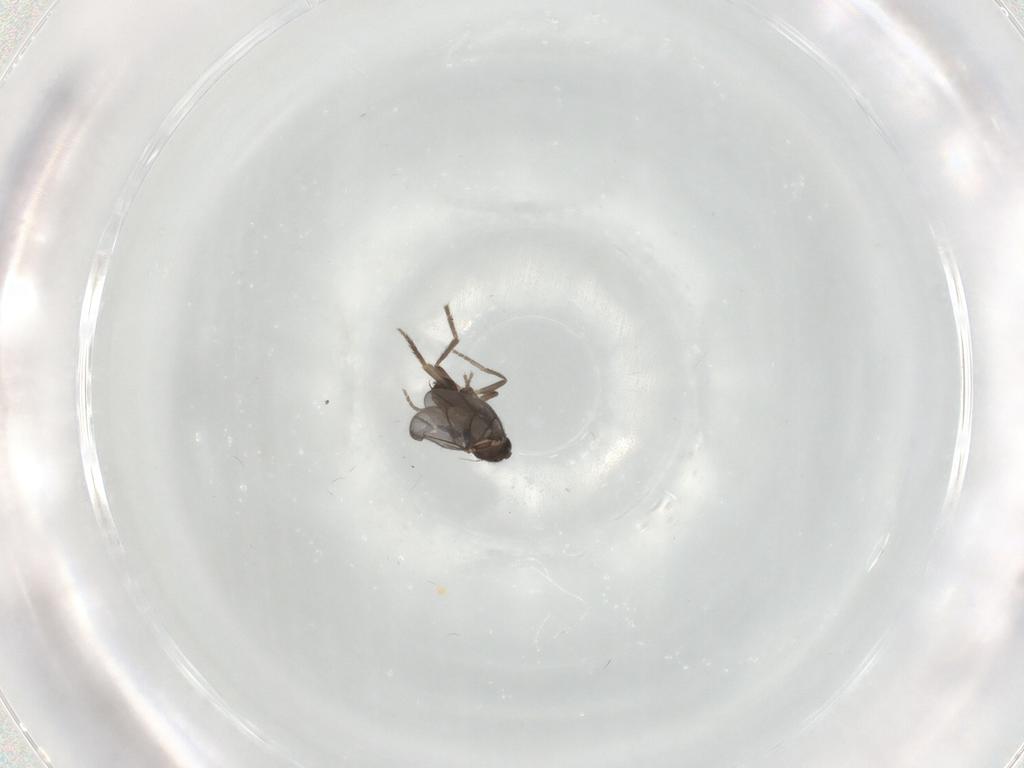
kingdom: Animalia
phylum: Arthropoda
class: Insecta
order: Diptera
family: Phoridae
